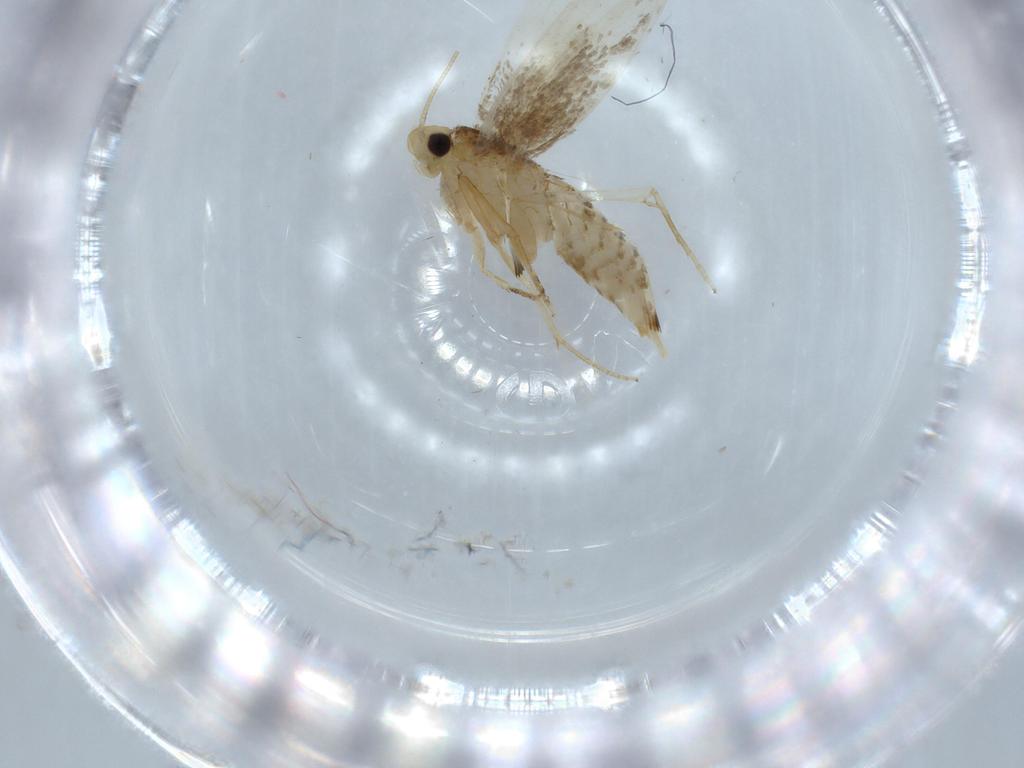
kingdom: Animalia
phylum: Arthropoda
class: Insecta
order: Lepidoptera
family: Tineidae
